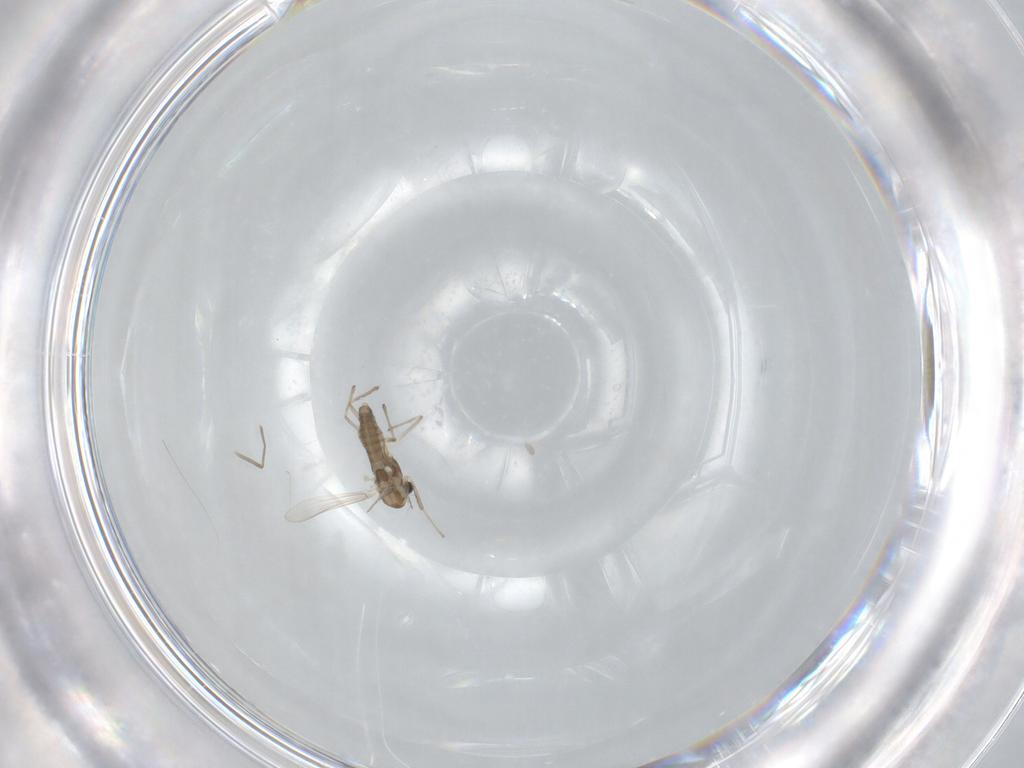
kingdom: Animalia
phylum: Arthropoda
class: Insecta
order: Diptera
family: Chironomidae
